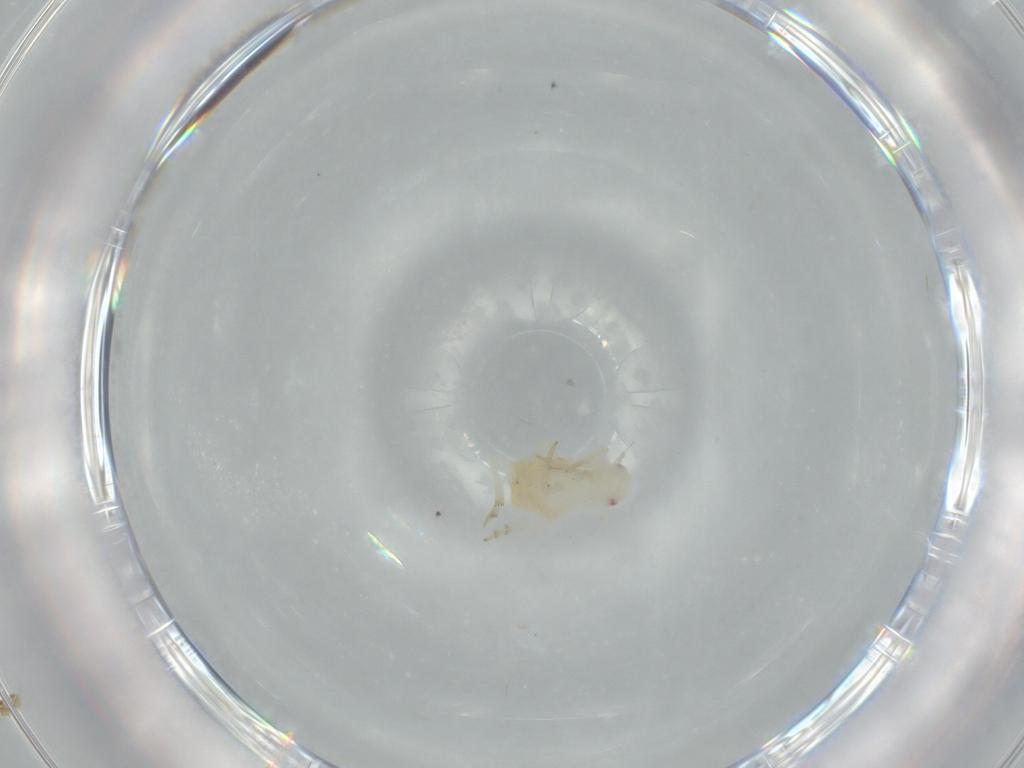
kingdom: Animalia
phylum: Arthropoda
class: Insecta
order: Hemiptera
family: Flatidae
